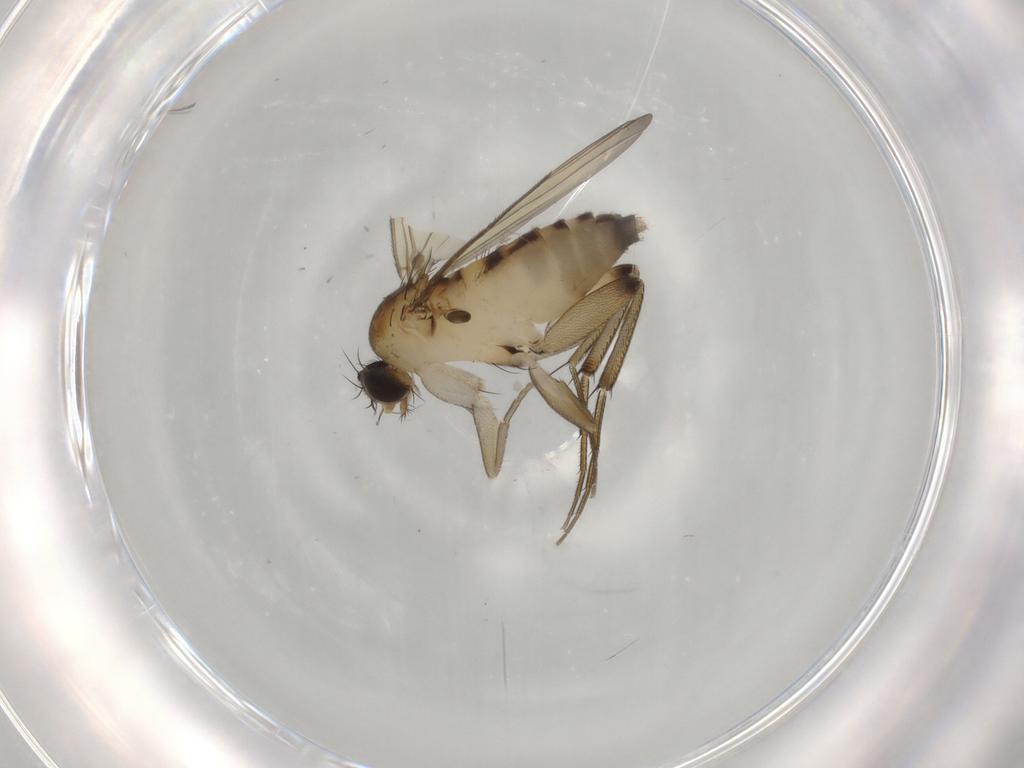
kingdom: Animalia
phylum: Arthropoda
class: Insecta
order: Diptera
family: Phoridae
